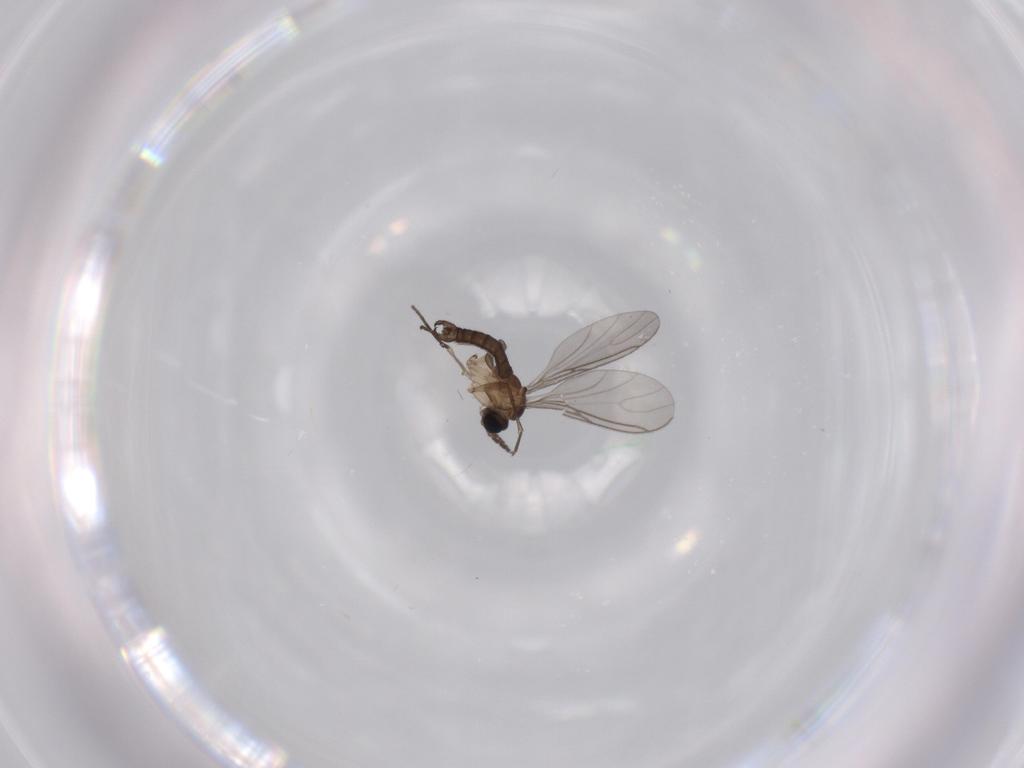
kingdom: Animalia
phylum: Arthropoda
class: Insecta
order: Diptera
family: Sciaridae
